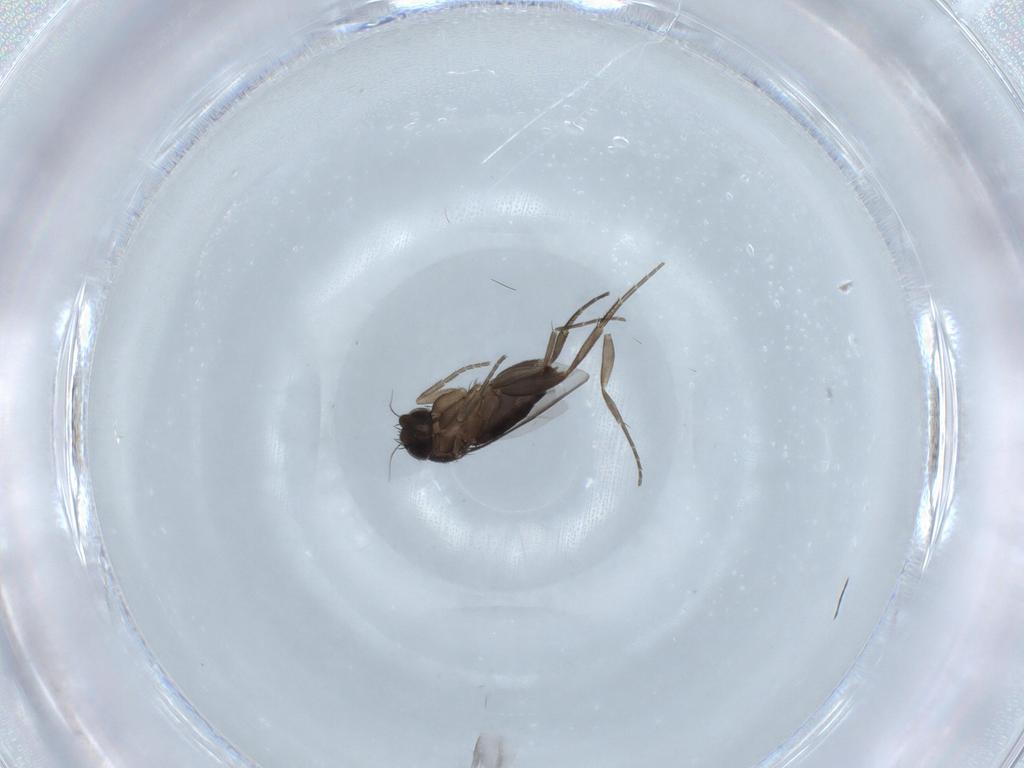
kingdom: Animalia
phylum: Arthropoda
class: Insecta
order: Diptera
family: Phoridae
